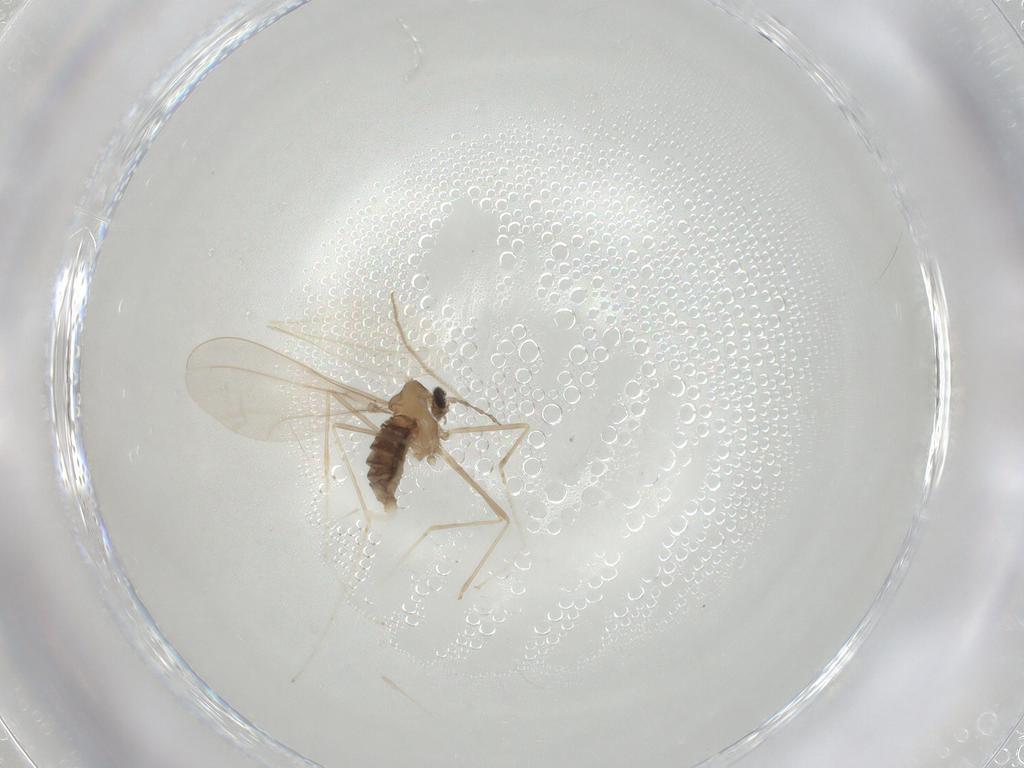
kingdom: Animalia
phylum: Arthropoda
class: Insecta
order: Diptera
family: Cecidomyiidae
